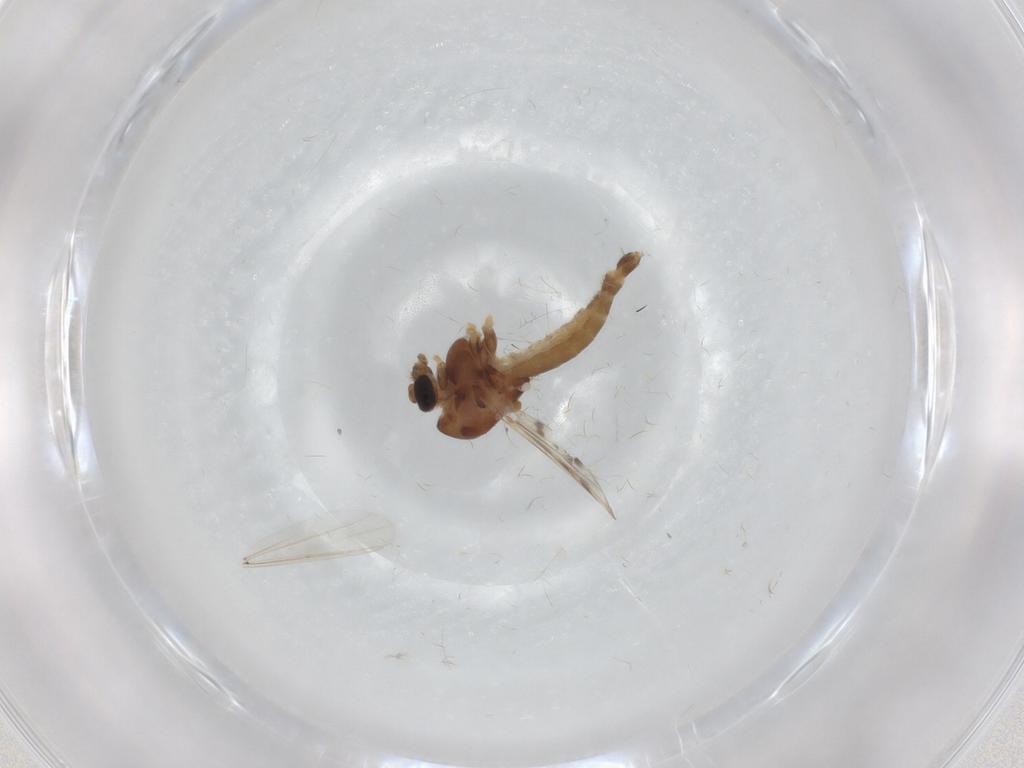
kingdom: Animalia
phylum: Arthropoda
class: Insecta
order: Diptera
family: Chironomidae
